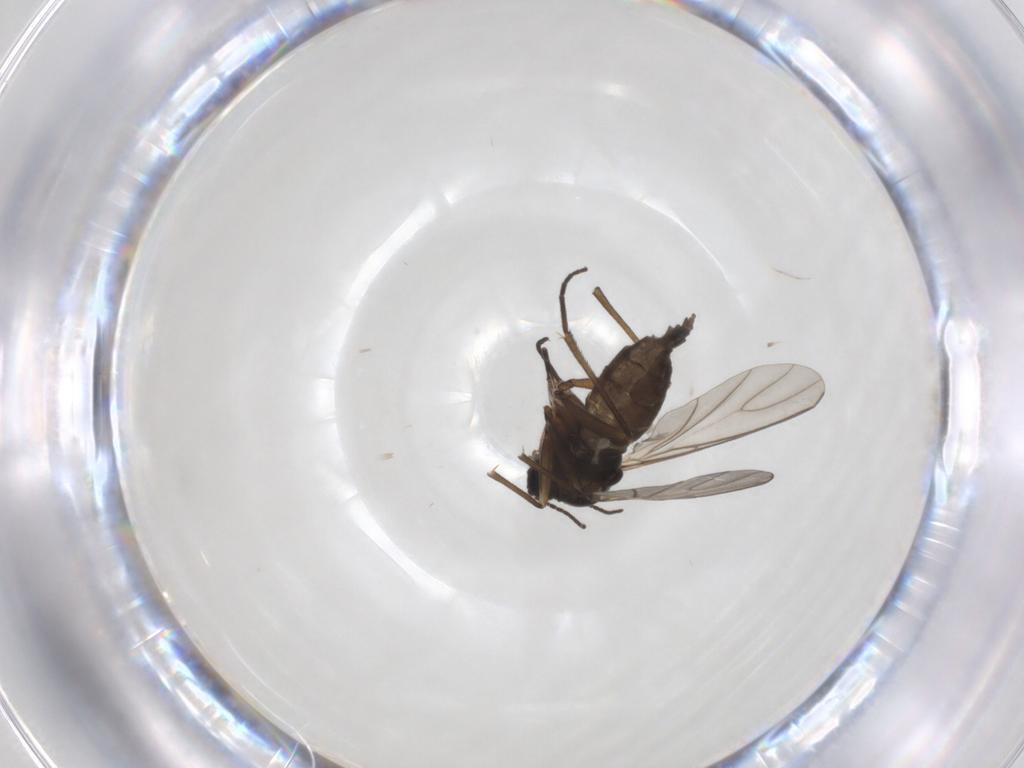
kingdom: Animalia
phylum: Arthropoda
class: Insecta
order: Diptera
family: Sciaridae
